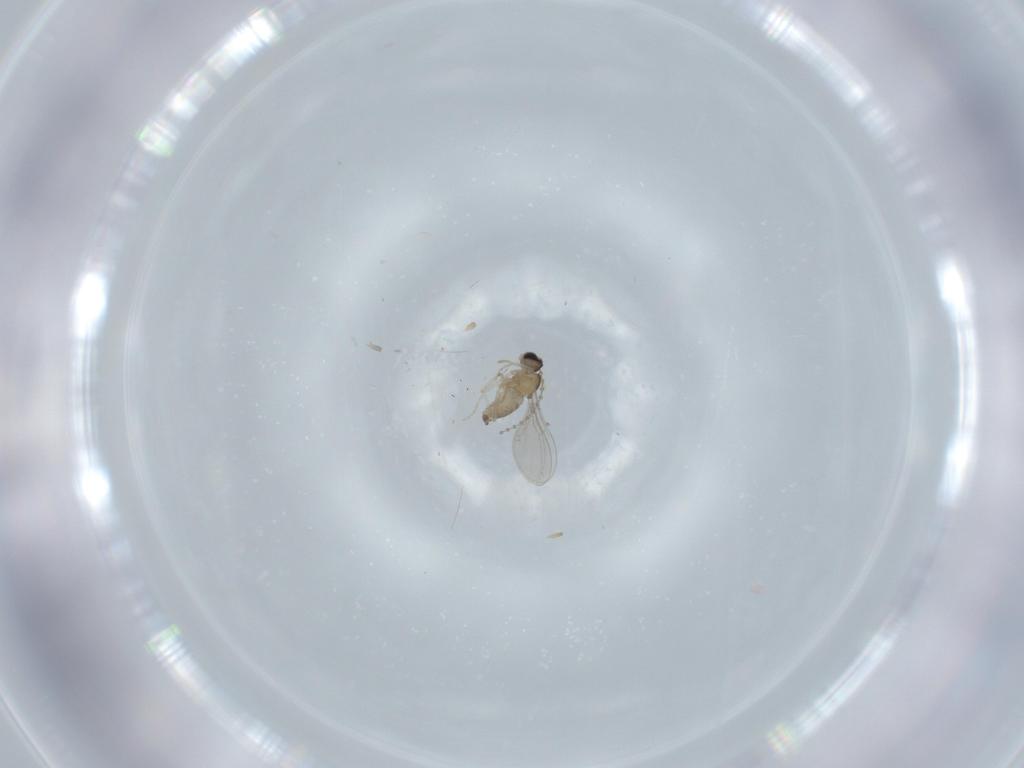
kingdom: Animalia
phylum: Arthropoda
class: Insecta
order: Diptera
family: Cecidomyiidae
